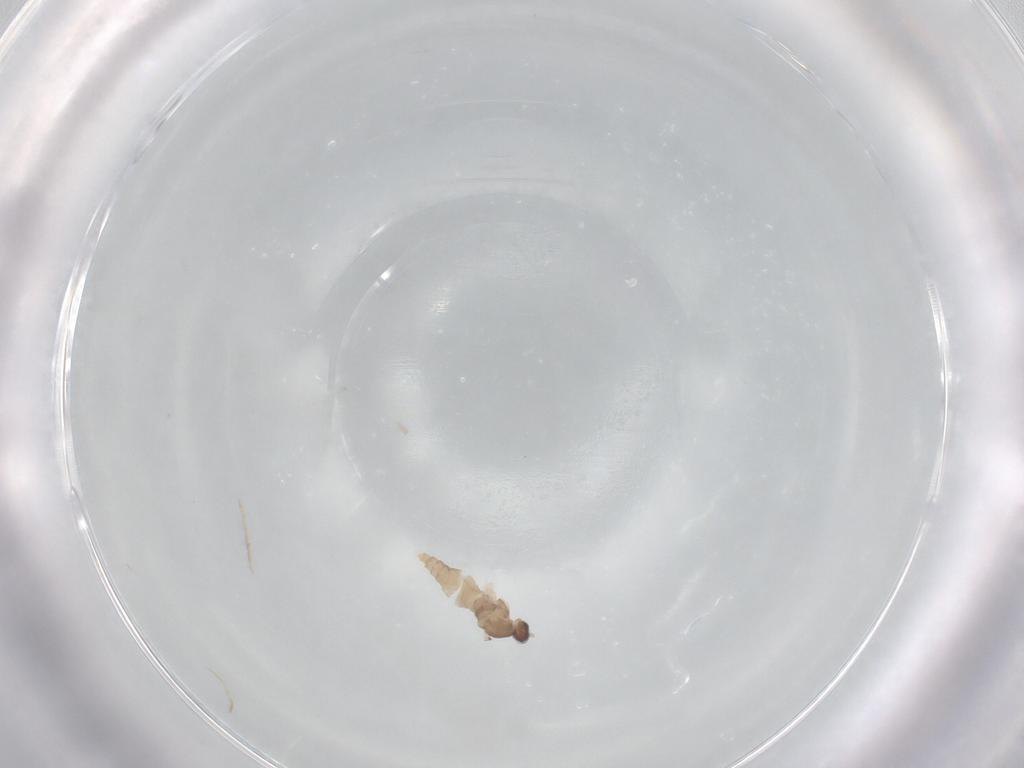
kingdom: Animalia
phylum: Arthropoda
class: Insecta
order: Diptera
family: Cecidomyiidae
